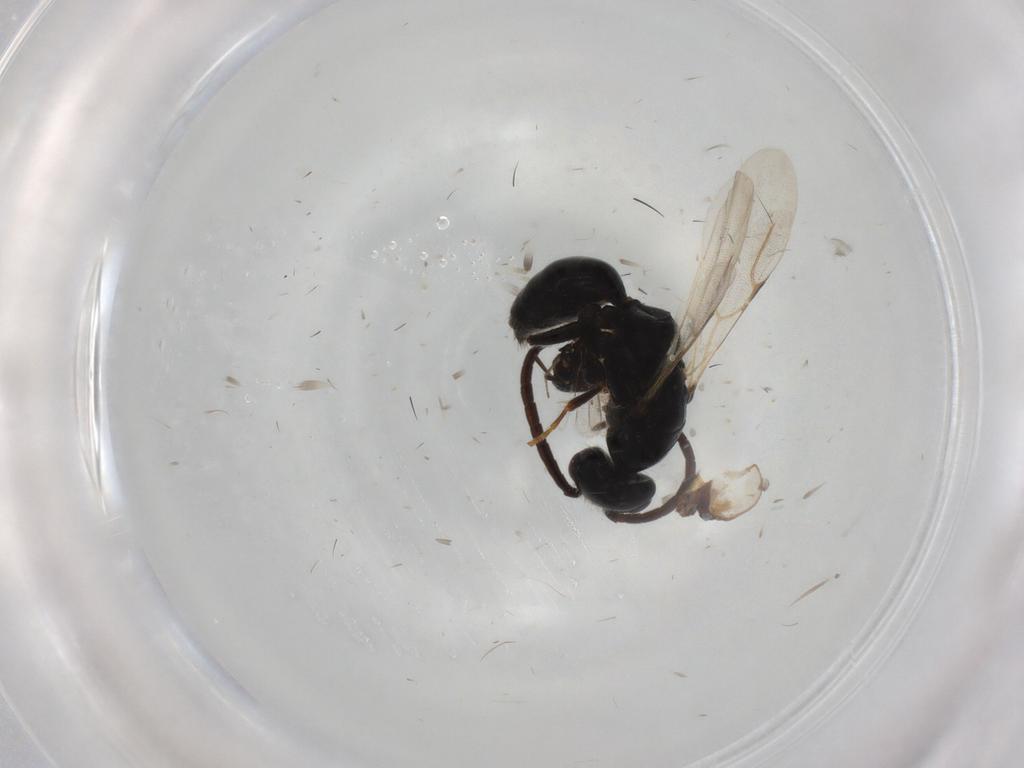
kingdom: Animalia
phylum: Arthropoda
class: Insecta
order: Hymenoptera
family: Bethylidae
